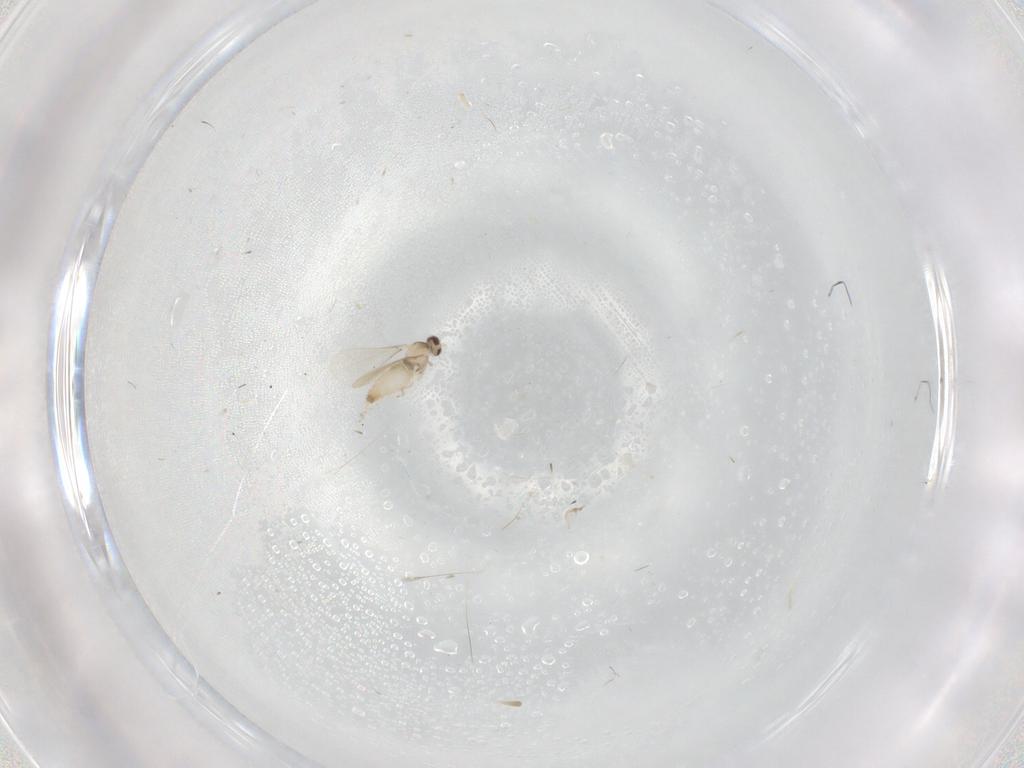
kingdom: Animalia
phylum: Arthropoda
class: Insecta
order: Diptera
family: Cecidomyiidae
